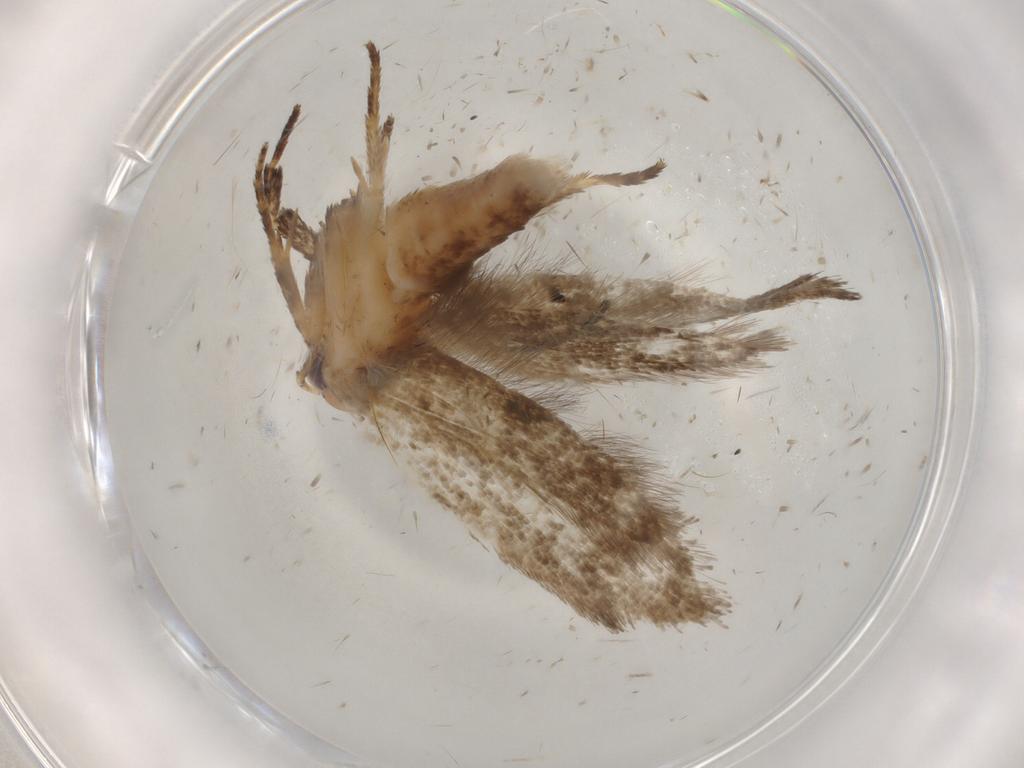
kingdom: Animalia
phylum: Arthropoda
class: Insecta
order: Lepidoptera
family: Ypsolophidae
